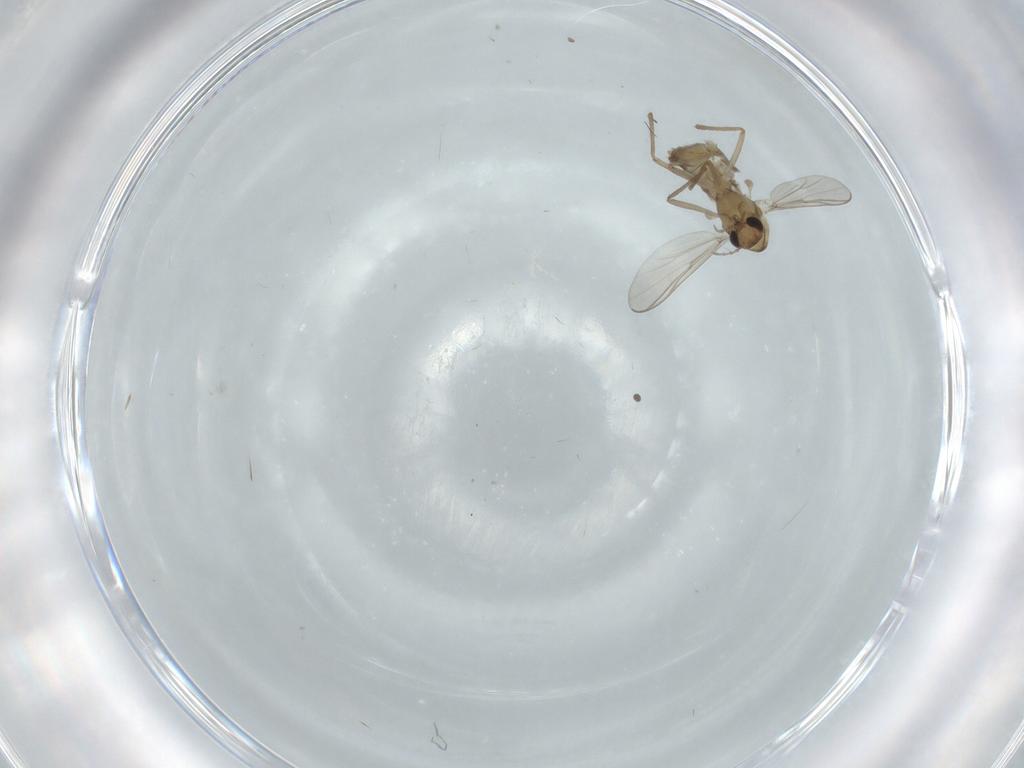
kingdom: Animalia
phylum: Arthropoda
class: Insecta
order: Diptera
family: Chironomidae
